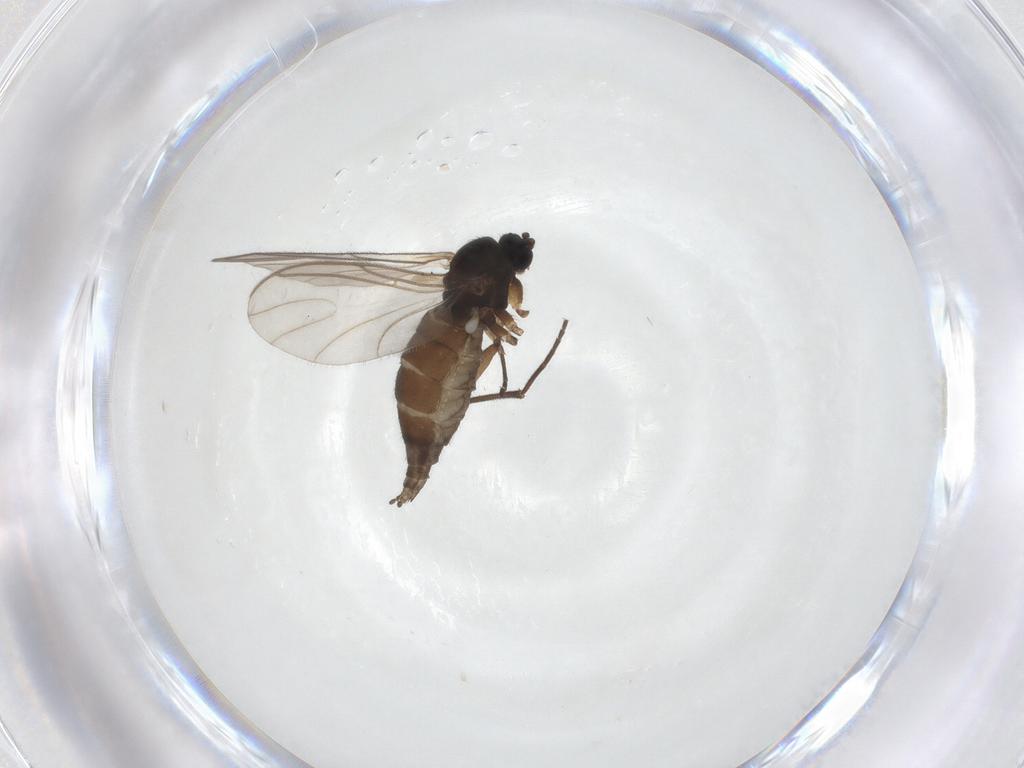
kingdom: Animalia
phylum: Arthropoda
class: Insecta
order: Diptera
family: Sciaridae
